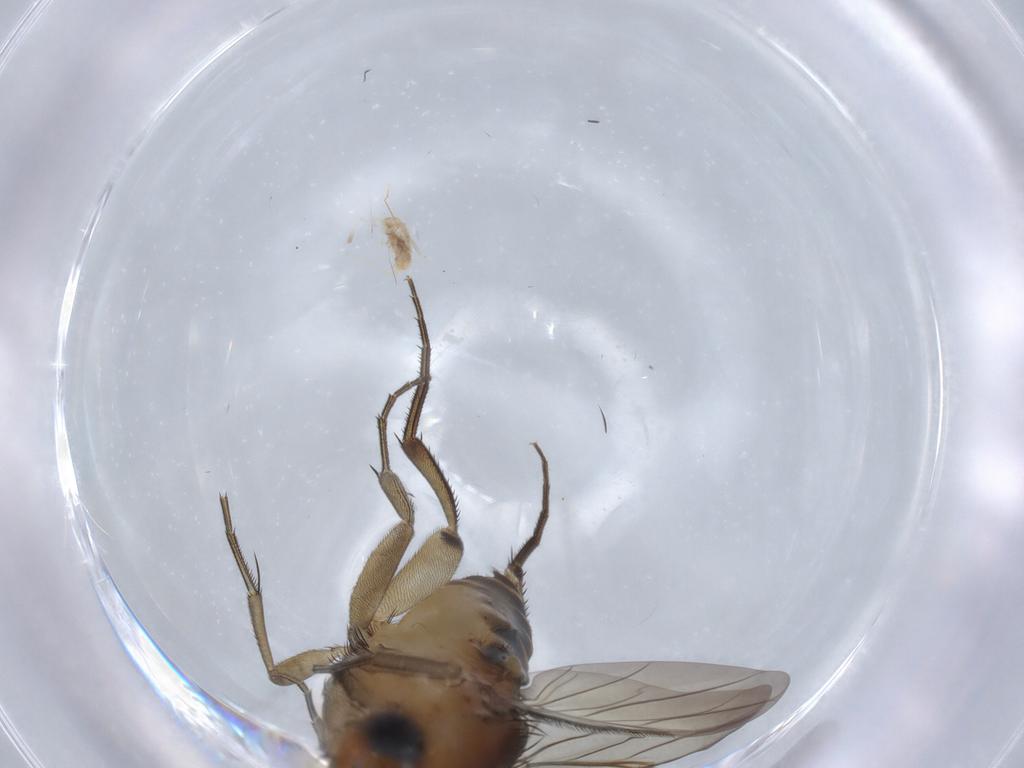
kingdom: Animalia
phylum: Arthropoda
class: Insecta
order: Diptera
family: Phoridae
